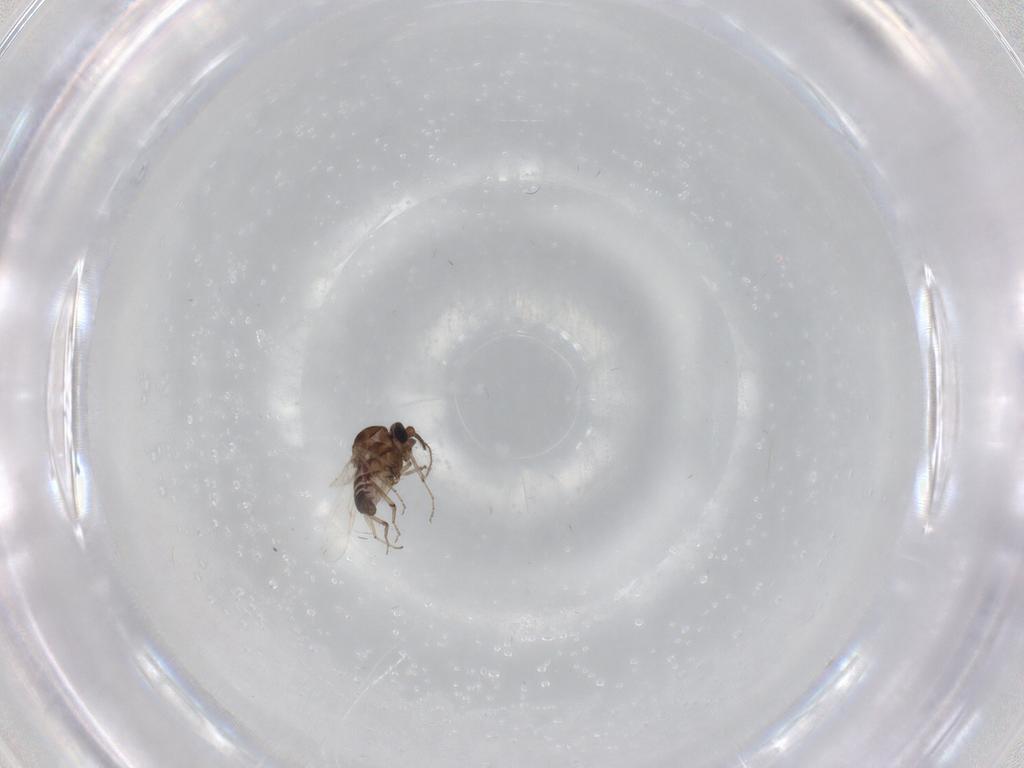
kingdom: Animalia
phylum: Arthropoda
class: Insecta
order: Diptera
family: Ceratopogonidae
